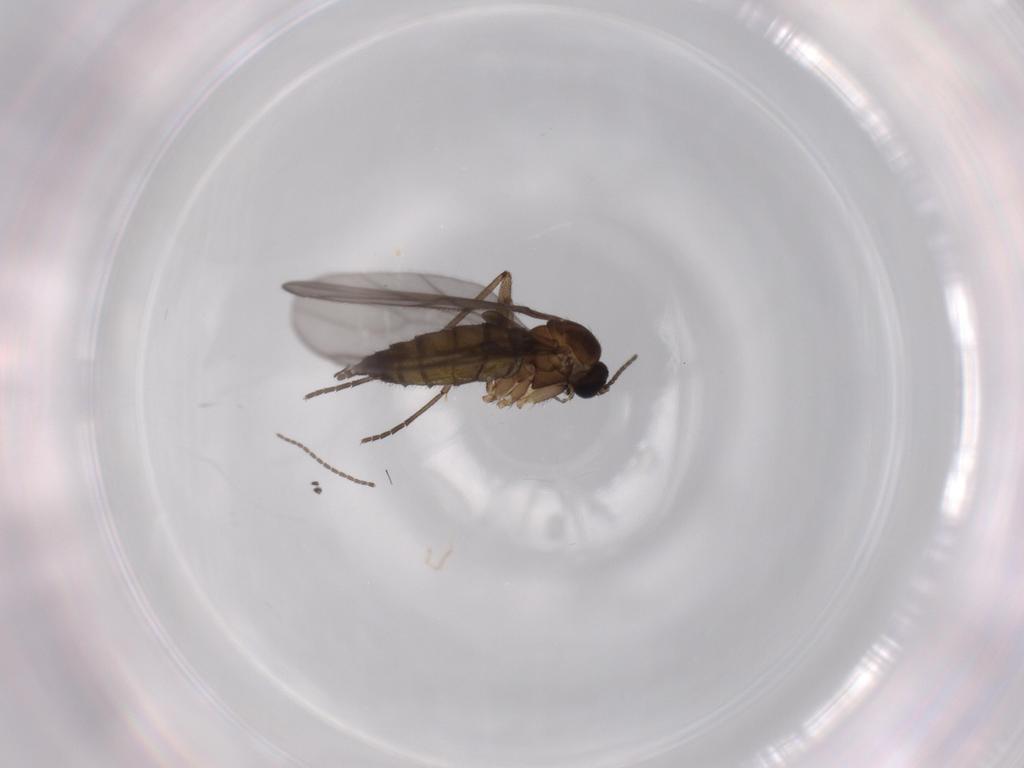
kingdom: Animalia
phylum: Arthropoda
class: Insecta
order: Diptera
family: Sciaridae
